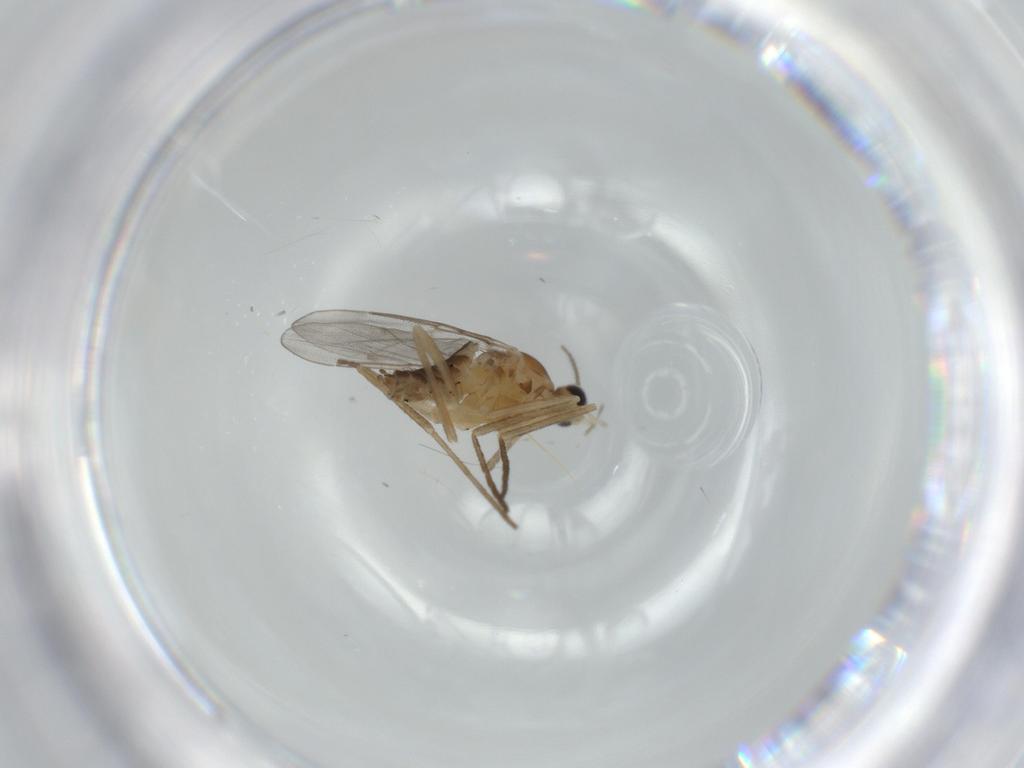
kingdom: Animalia
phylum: Arthropoda
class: Insecta
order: Diptera
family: Cecidomyiidae
